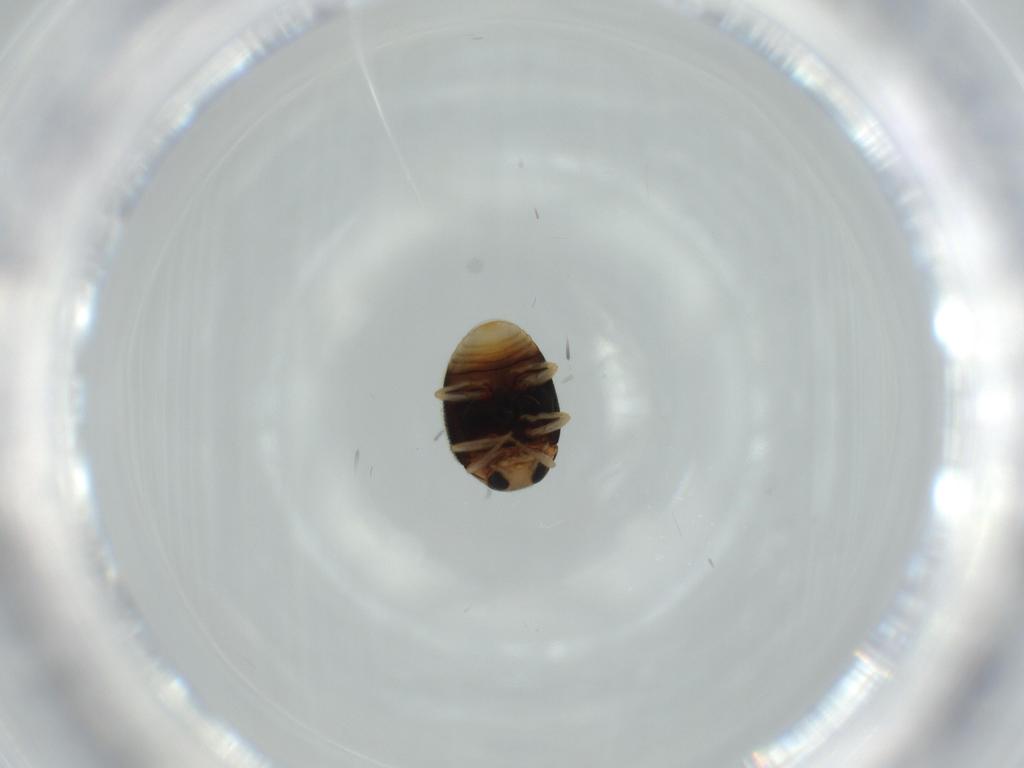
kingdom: Animalia
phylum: Arthropoda
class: Insecta
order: Coleoptera
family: Coccinellidae
